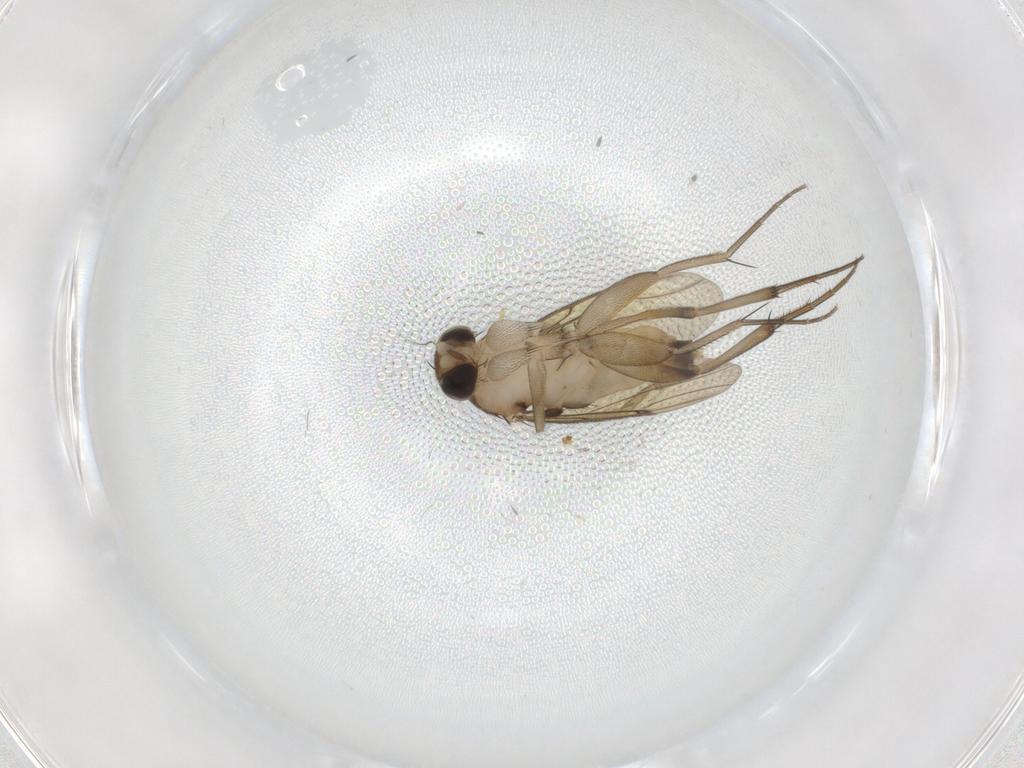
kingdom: Animalia
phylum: Arthropoda
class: Insecta
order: Diptera
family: Phoridae
